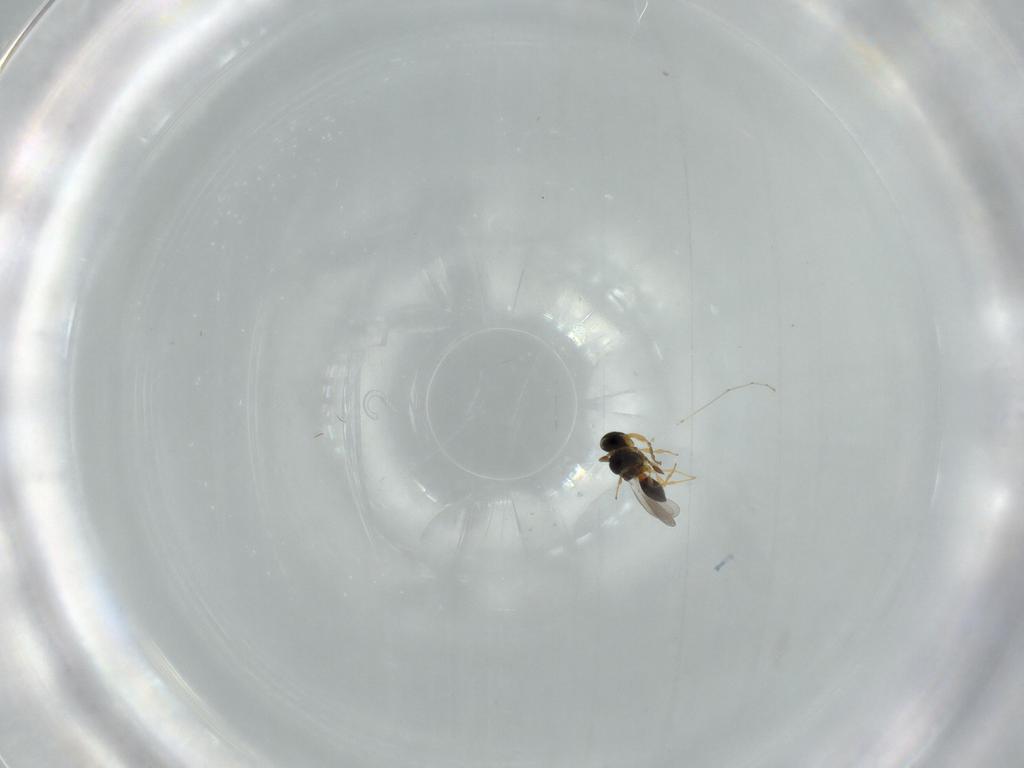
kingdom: Animalia
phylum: Arthropoda
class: Insecta
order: Hymenoptera
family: Platygastridae
